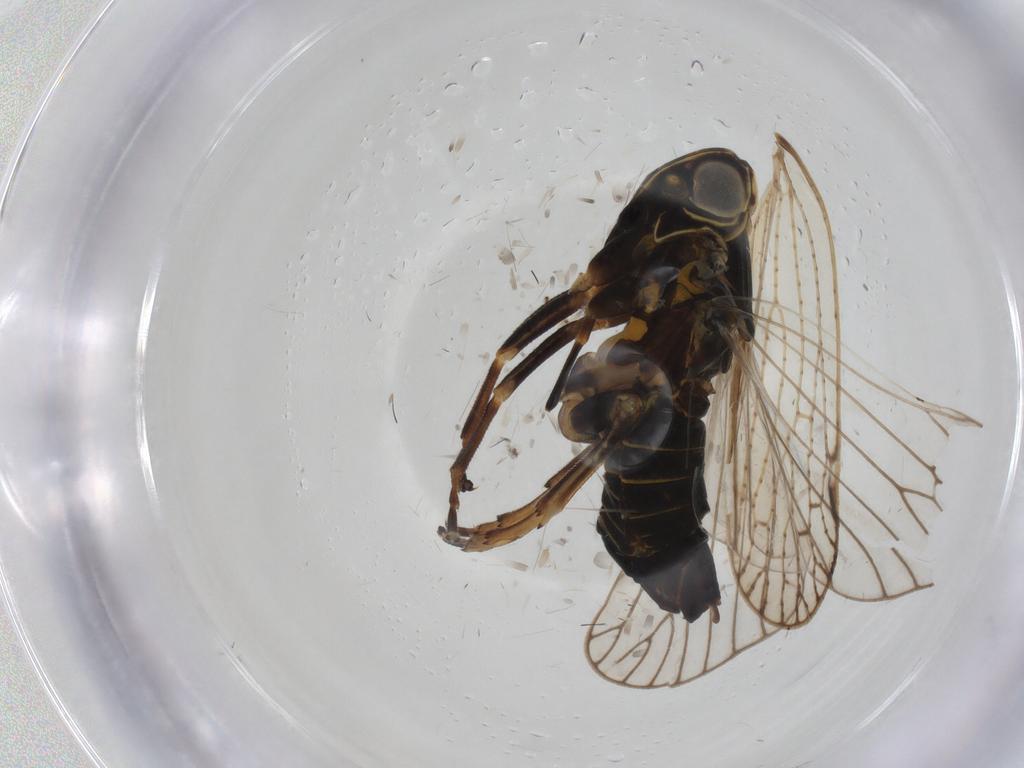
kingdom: Animalia
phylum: Arthropoda
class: Insecta
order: Hemiptera
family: Cixiidae
